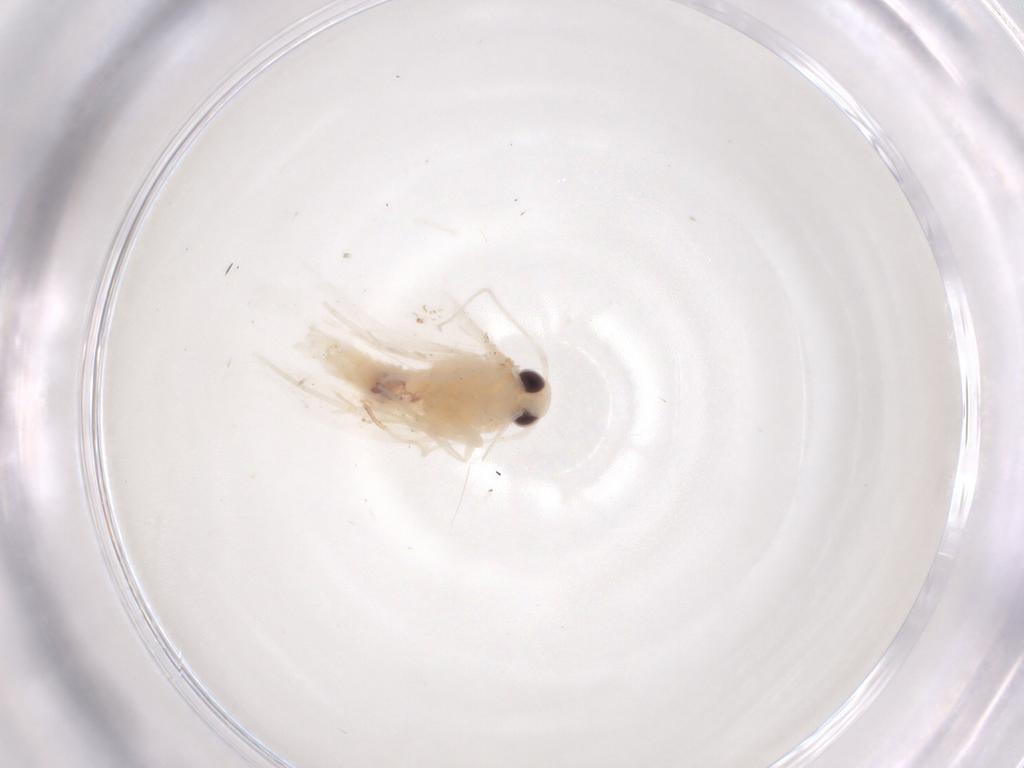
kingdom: Animalia
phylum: Arthropoda
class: Insecta
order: Lepidoptera
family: Gelechiidae
